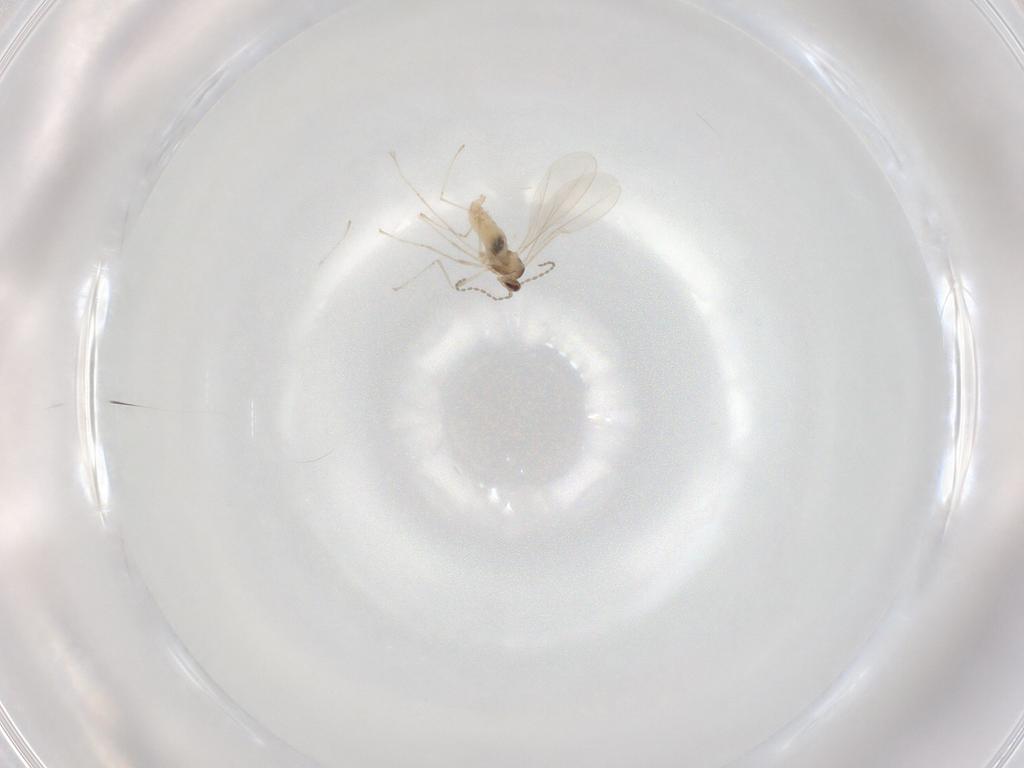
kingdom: Animalia
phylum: Arthropoda
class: Insecta
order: Diptera
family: Cecidomyiidae
